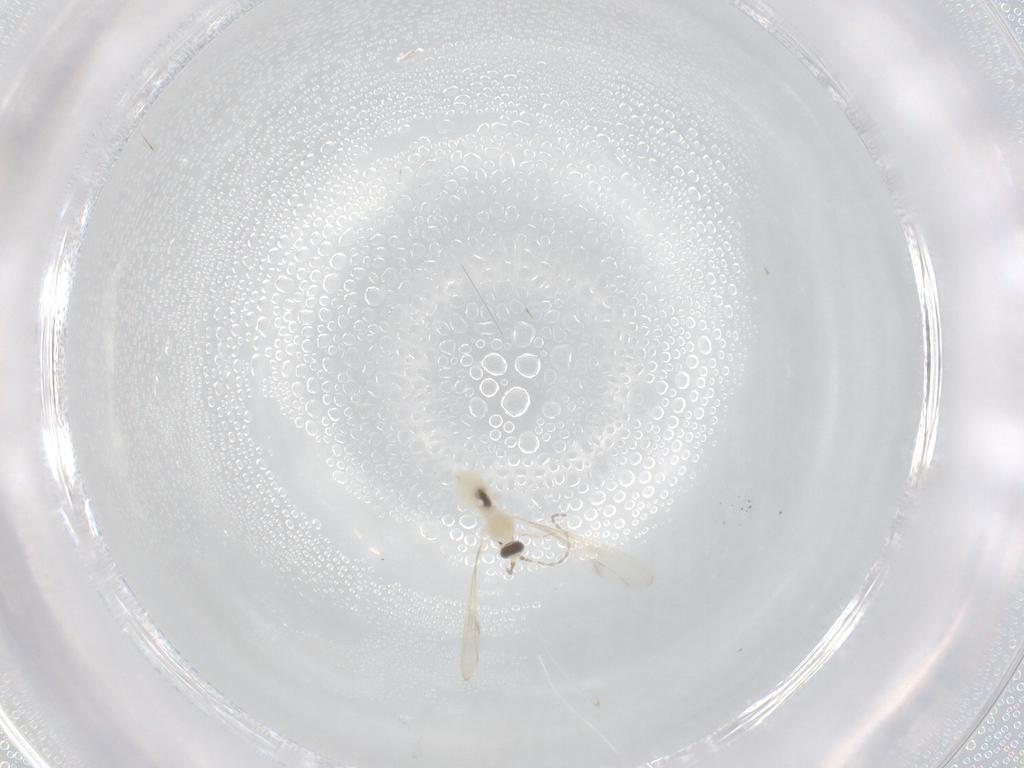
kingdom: Animalia
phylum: Arthropoda
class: Insecta
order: Diptera
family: Cecidomyiidae
